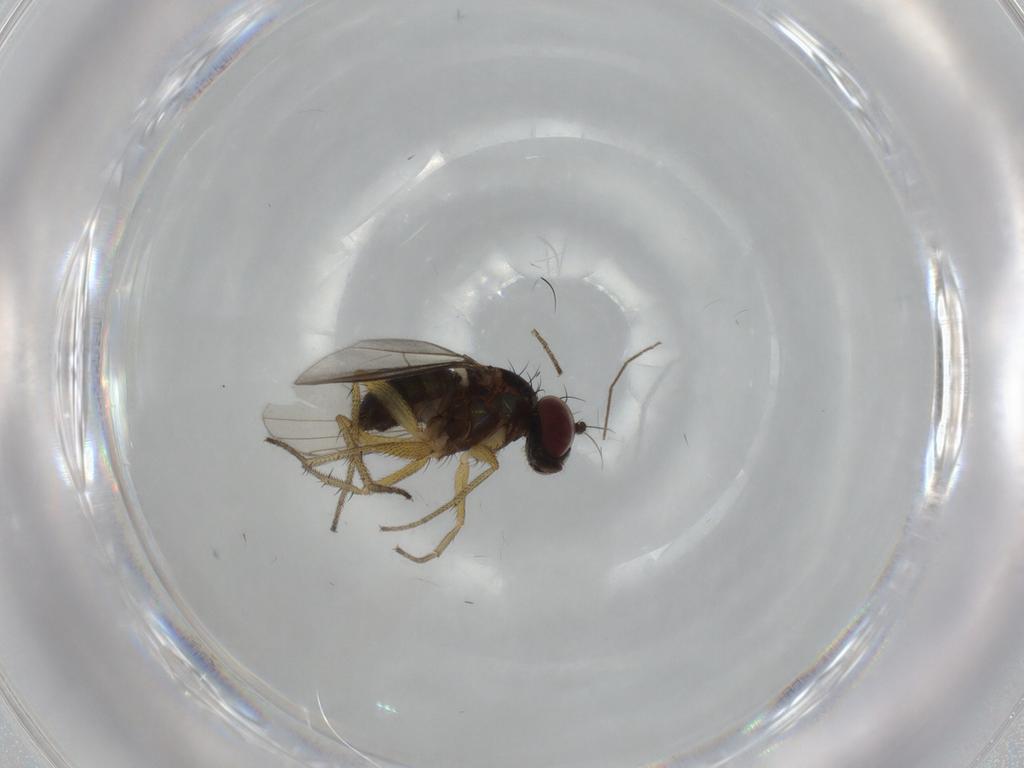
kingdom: Animalia
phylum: Arthropoda
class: Insecta
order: Diptera
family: Dolichopodidae
